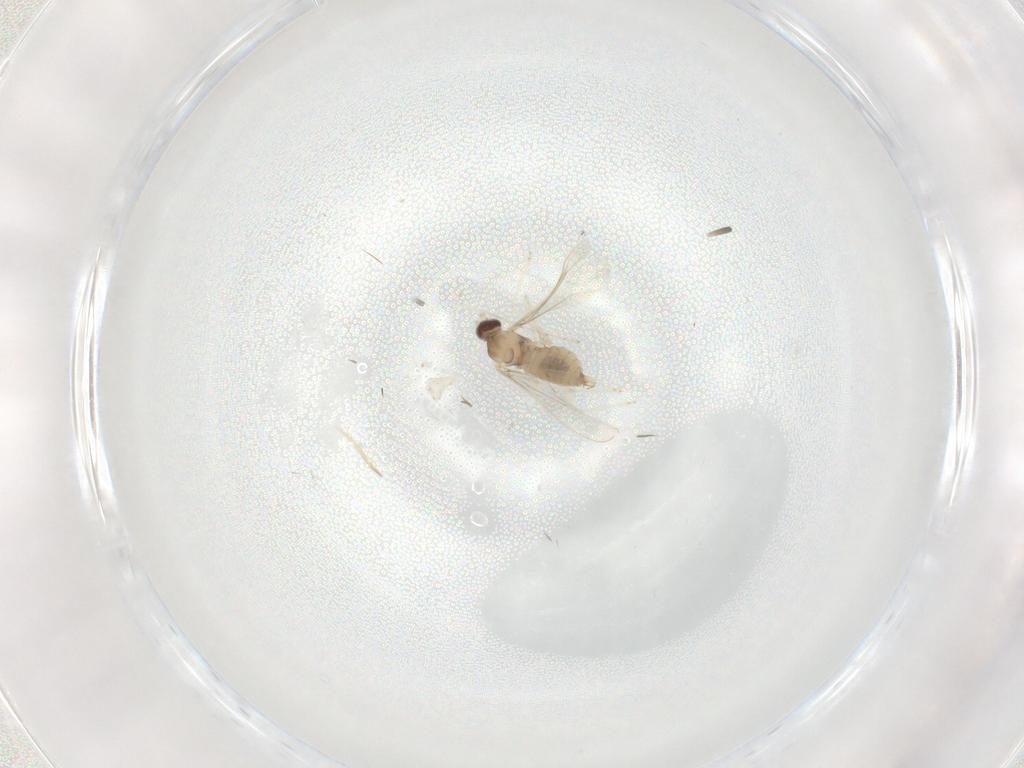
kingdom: Animalia
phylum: Arthropoda
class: Insecta
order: Diptera
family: Cecidomyiidae
